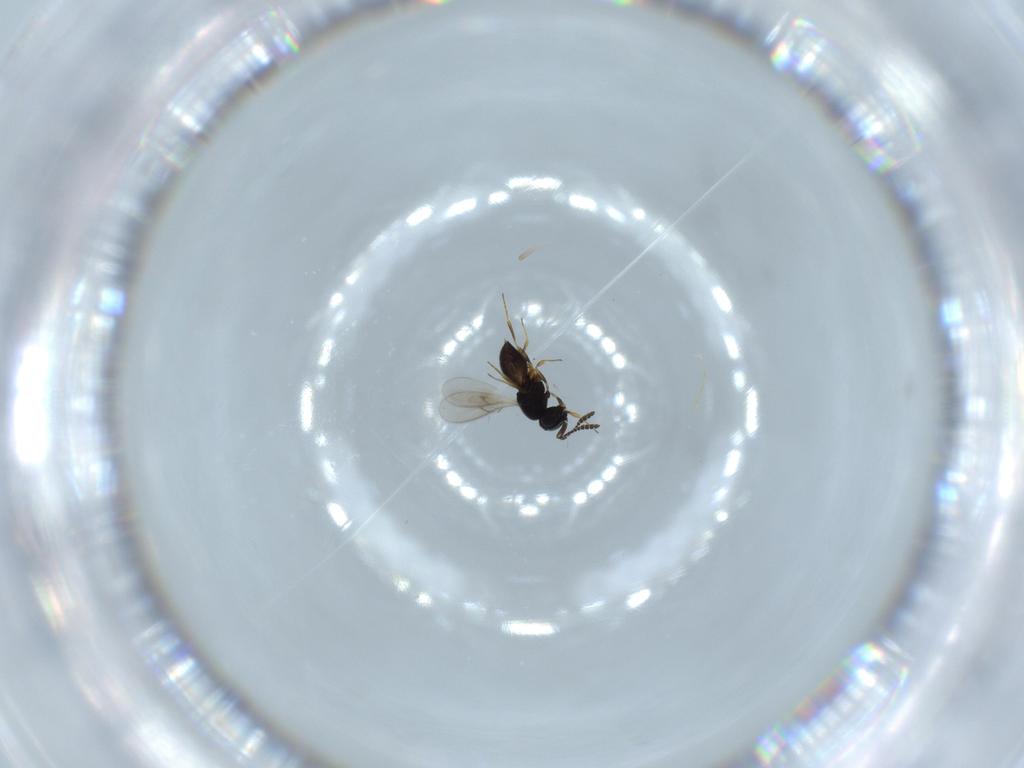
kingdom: Animalia
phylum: Arthropoda
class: Insecta
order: Hymenoptera
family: Scelionidae
